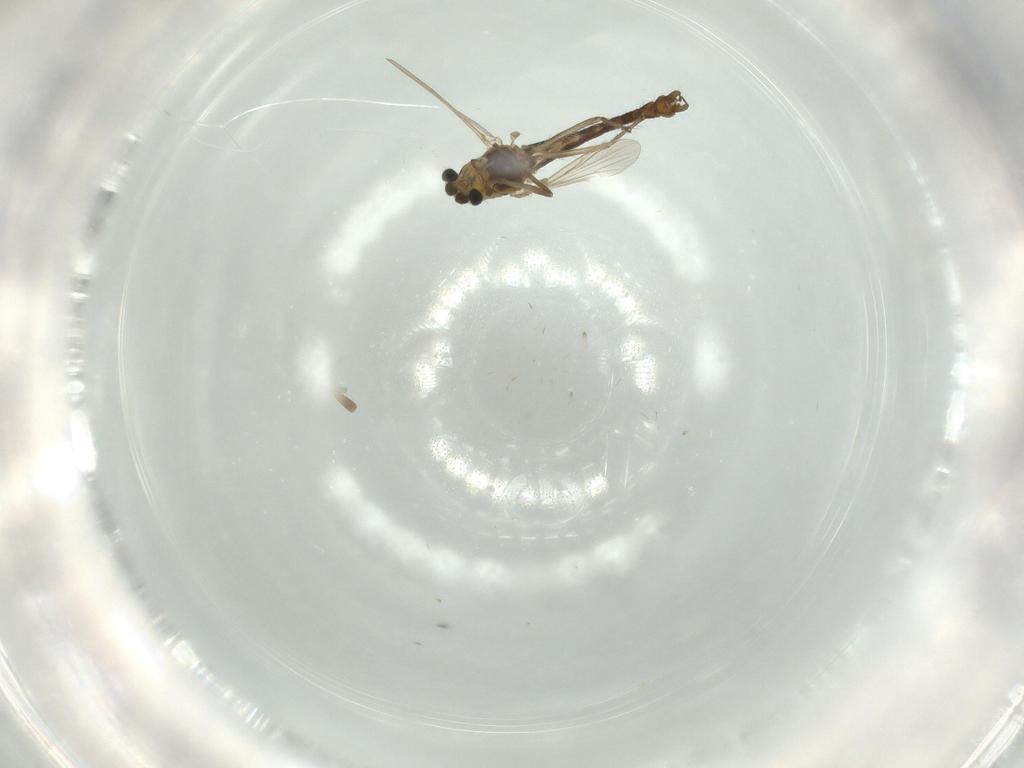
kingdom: Animalia
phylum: Arthropoda
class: Insecta
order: Diptera
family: Chironomidae
